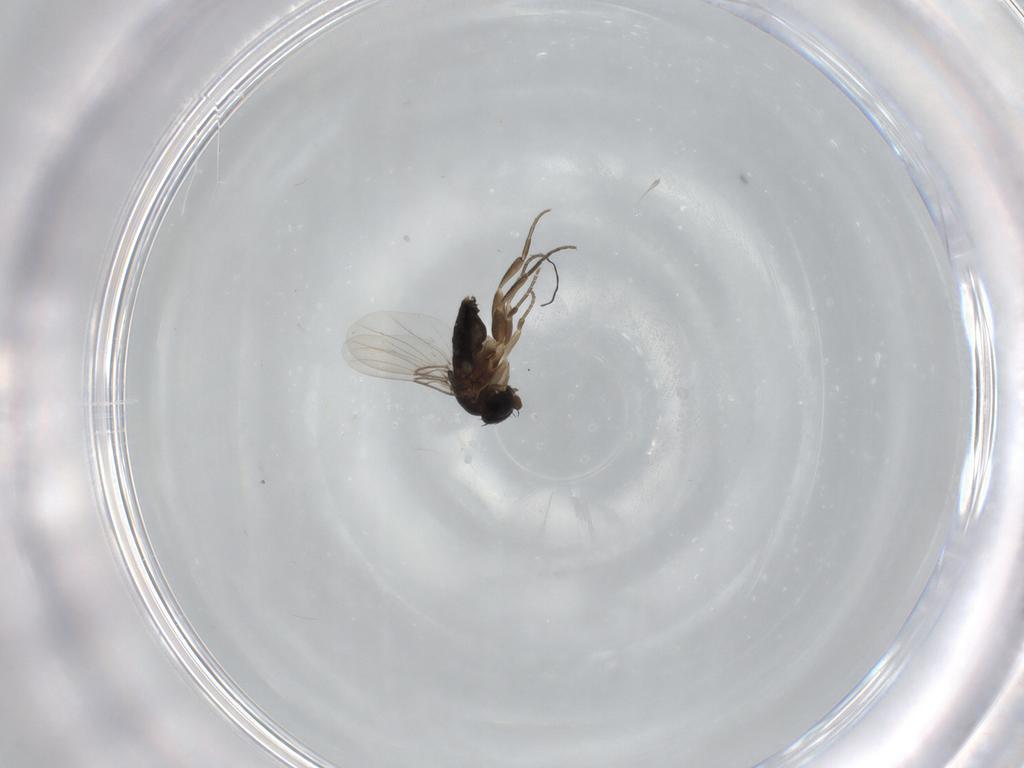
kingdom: Animalia
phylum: Arthropoda
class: Insecta
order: Diptera
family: Phoridae
